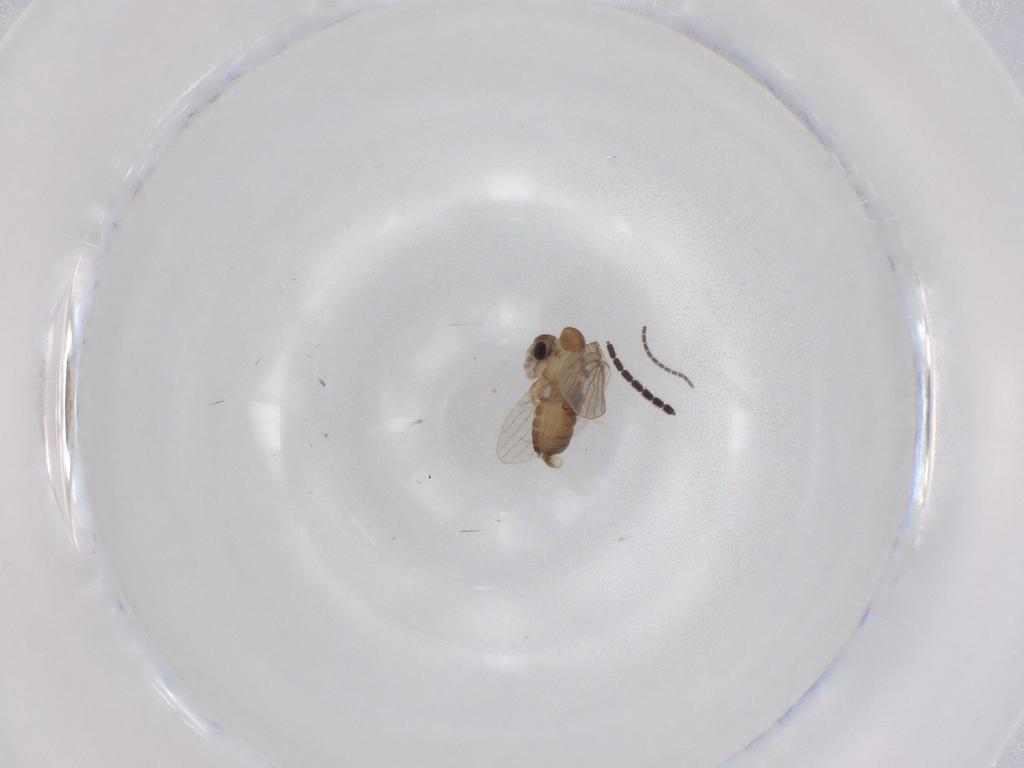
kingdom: Animalia
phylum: Arthropoda
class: Insecta
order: Diptera
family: Sciaridae
